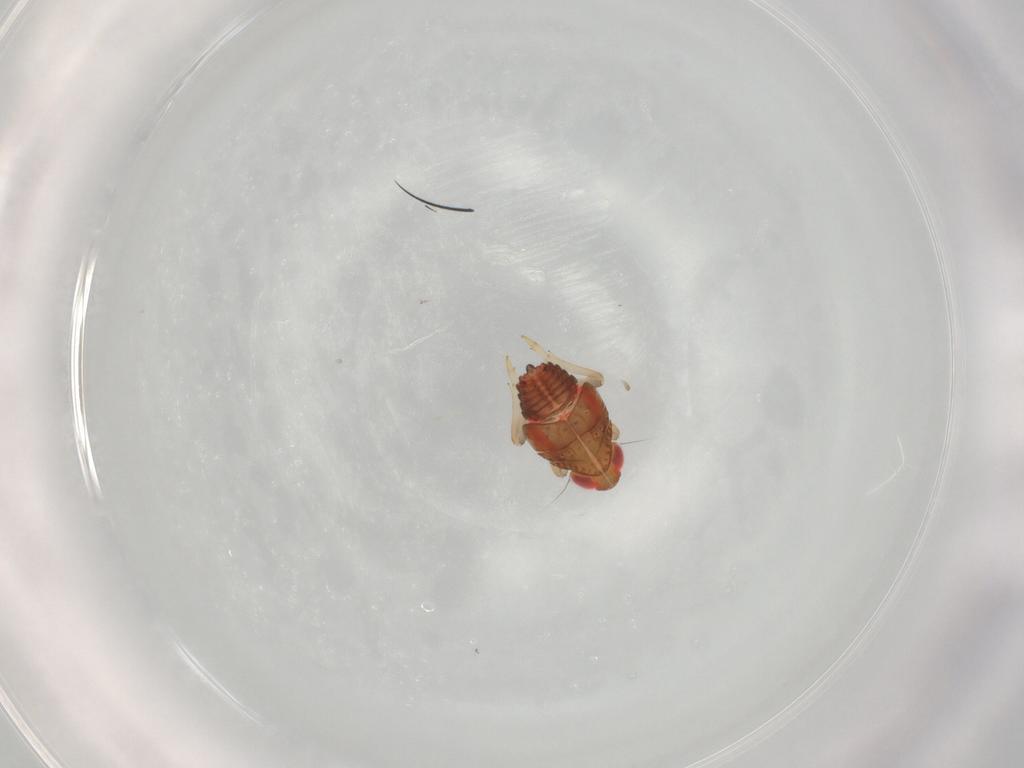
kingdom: Animalia
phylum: Arthropoda
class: Insecta
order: Hemiptera
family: Issidae
